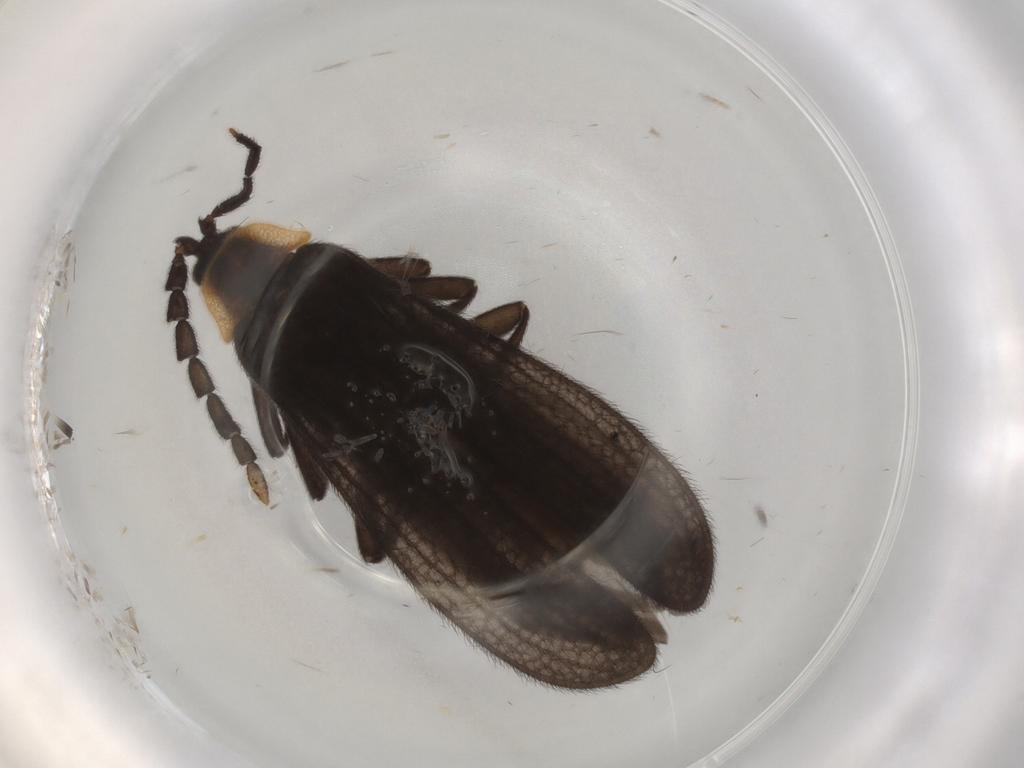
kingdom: Animalia
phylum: Arthropoda
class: Insecta
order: Coleoptera
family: Lycidae
